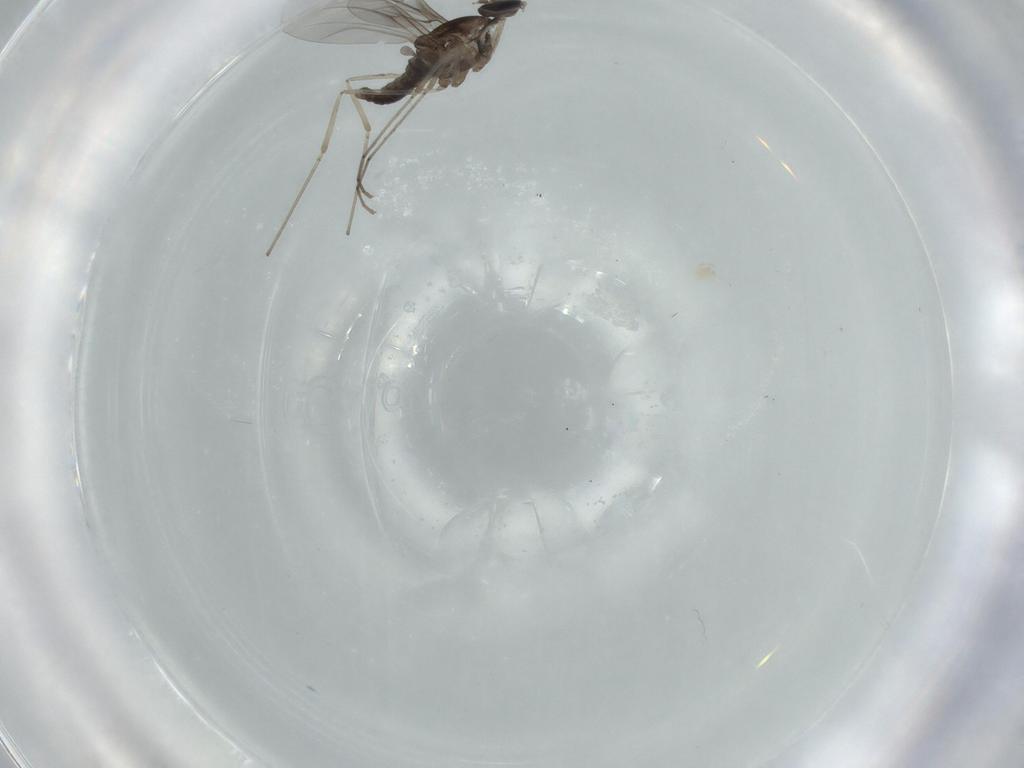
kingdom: Animalia
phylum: Arthropoda
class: Insecta
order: Diptera
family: Cecidomyiidae
